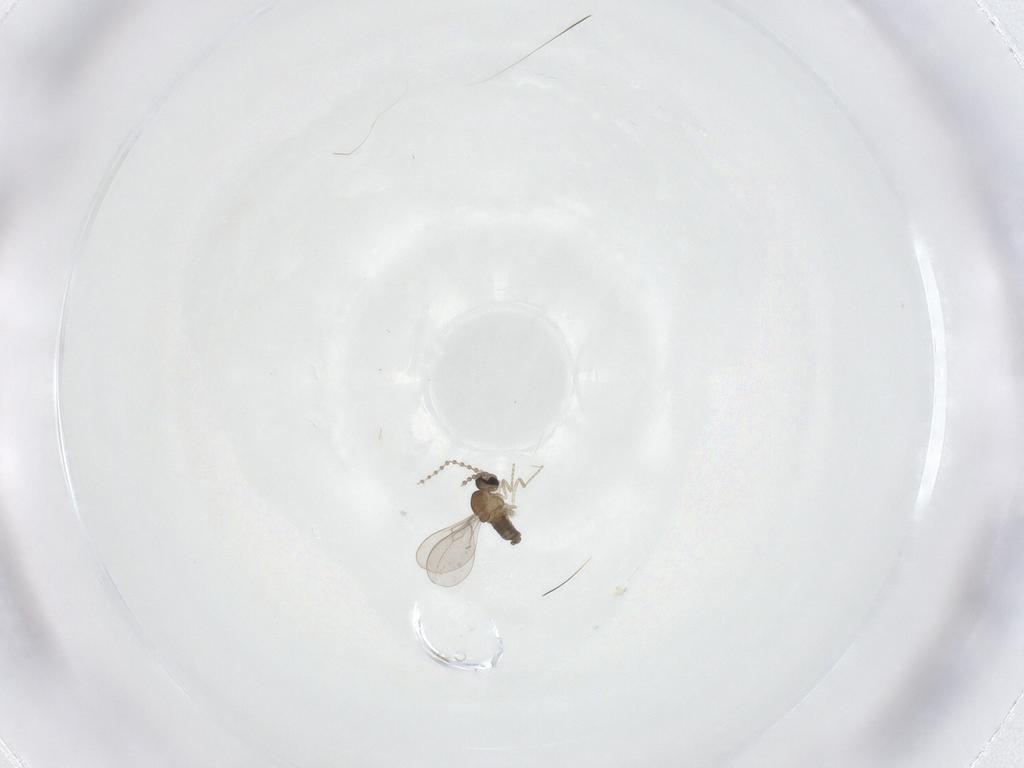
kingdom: Animalia
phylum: Arthropoda
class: Insecta
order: Diptera
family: Cecidomyiidae
